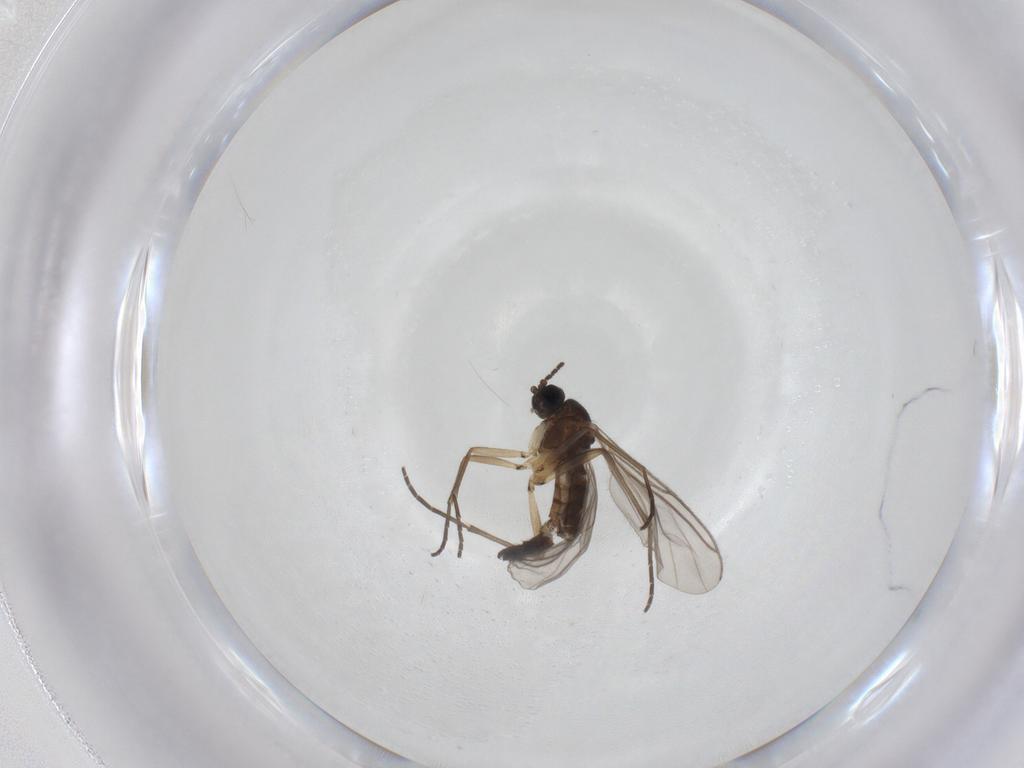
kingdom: Animalia
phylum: Arthropoda
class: Insecta
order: Diptera
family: Sciaridae
